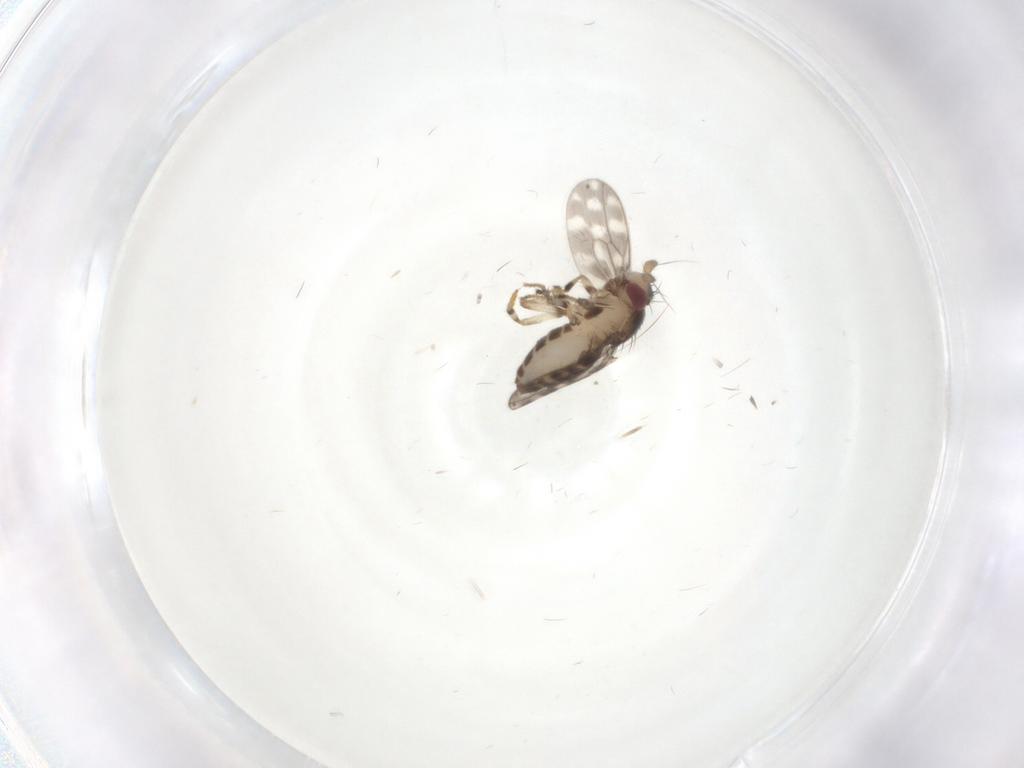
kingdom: Animalia
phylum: Arthropoda
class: Insecta
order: Diptera
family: Sphaeroceridae
